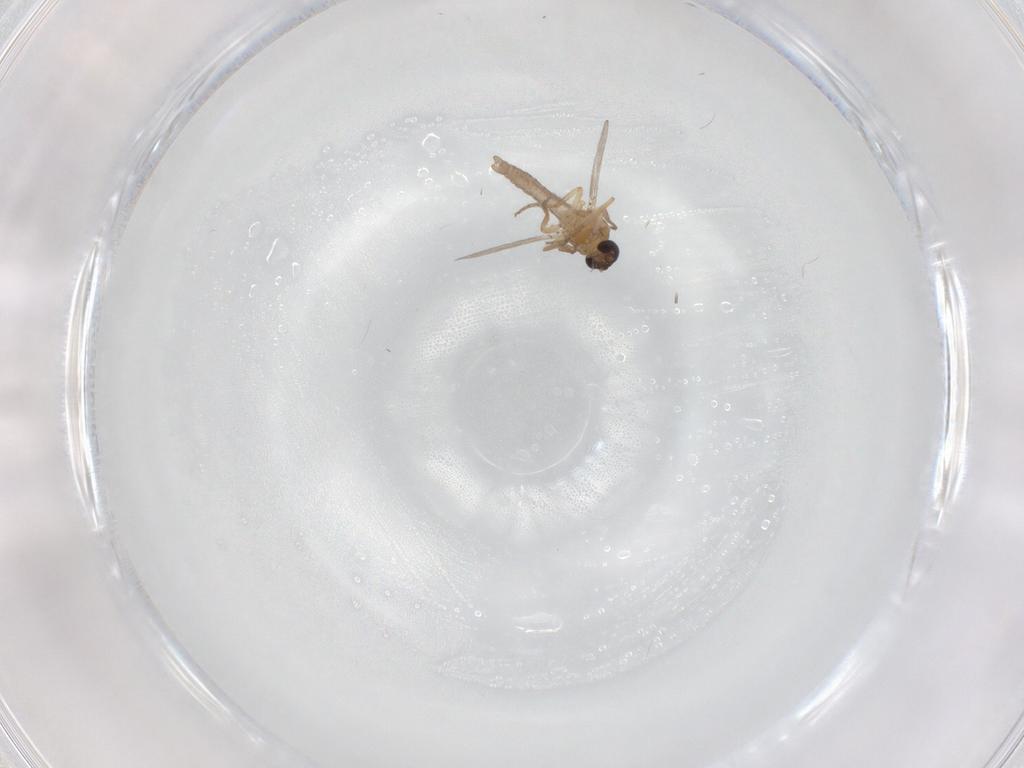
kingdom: Animalia
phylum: Arthropoda
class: Insecta
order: Diptera
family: Ceratopogonidae
